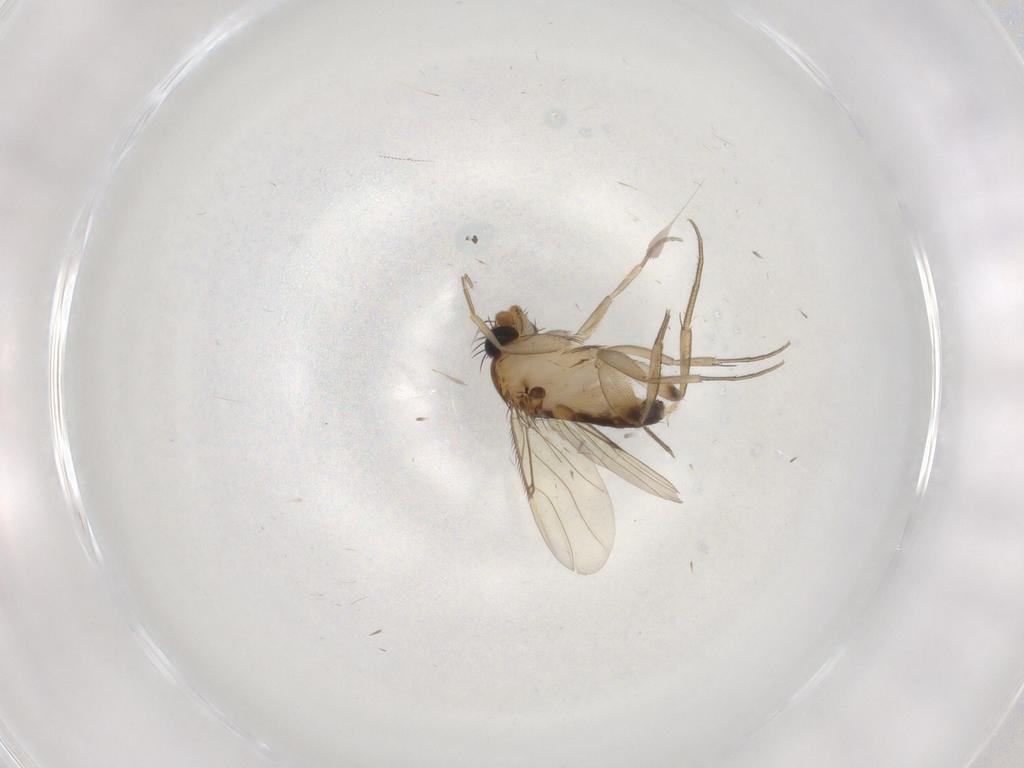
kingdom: Animalia
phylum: Arthropoda
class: Insecta
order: Diptera
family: Phoridae
